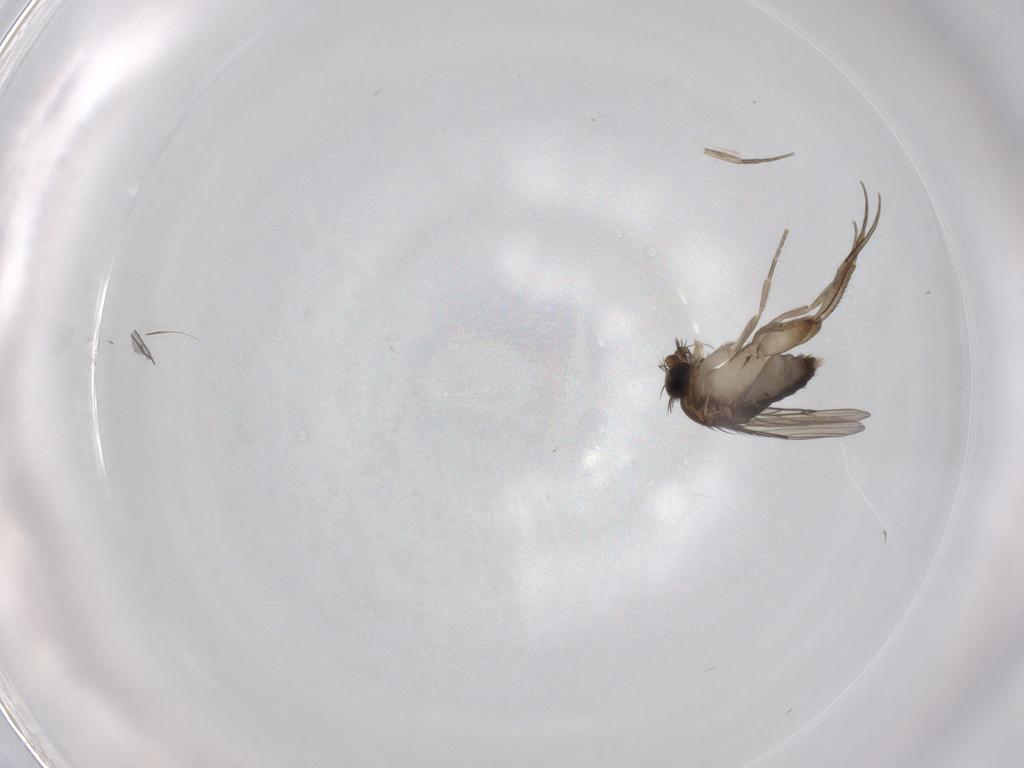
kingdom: Animalia
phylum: Arthropoda
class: Insecta
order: Diptera
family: Phoridae
